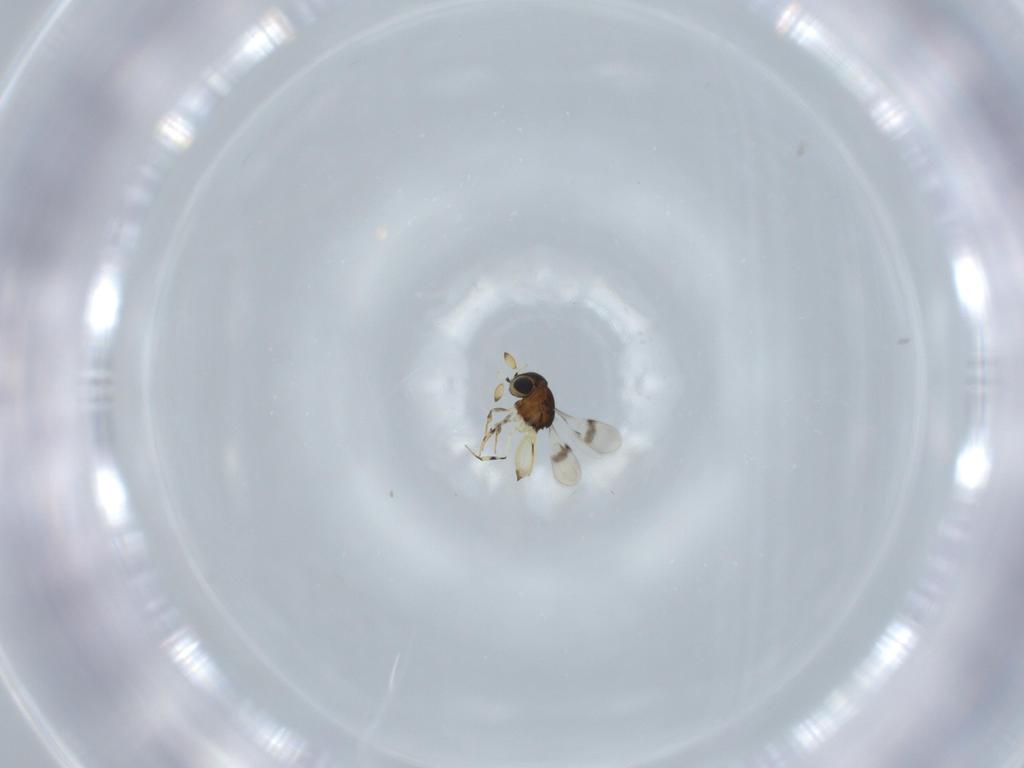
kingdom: Animalia
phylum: Arthropoda
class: Insecta
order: Hymenoptera
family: Scelionidae
